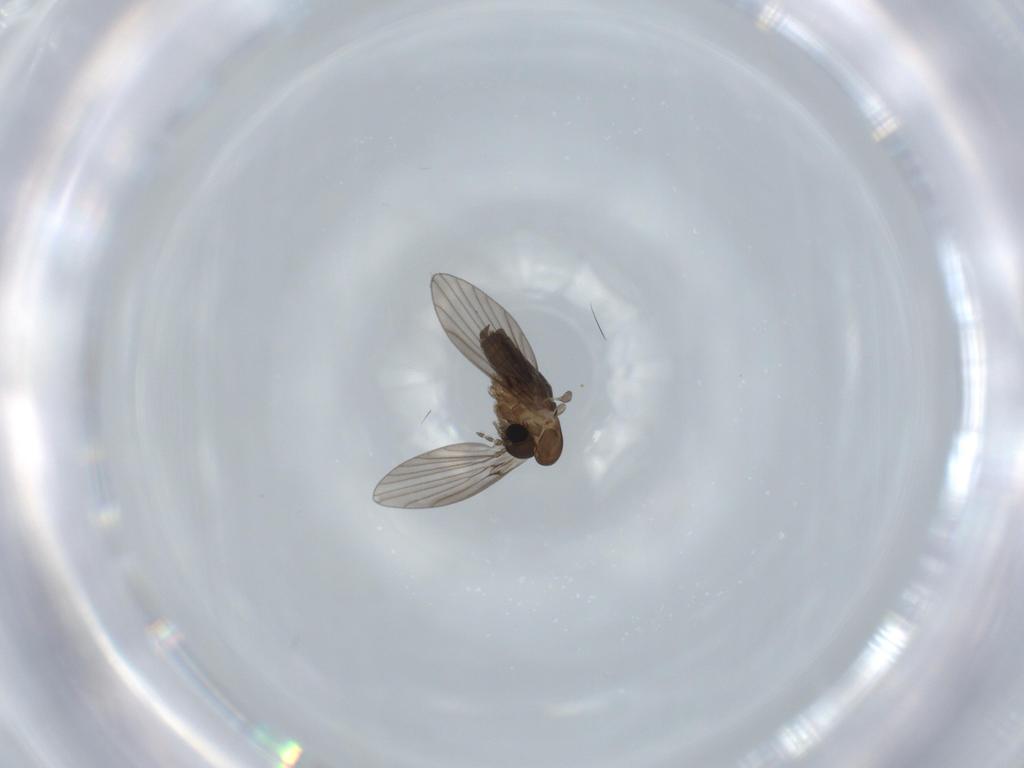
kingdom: Animalia
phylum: Arthropoda
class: Insecta
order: Diptera
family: Psychodidae
